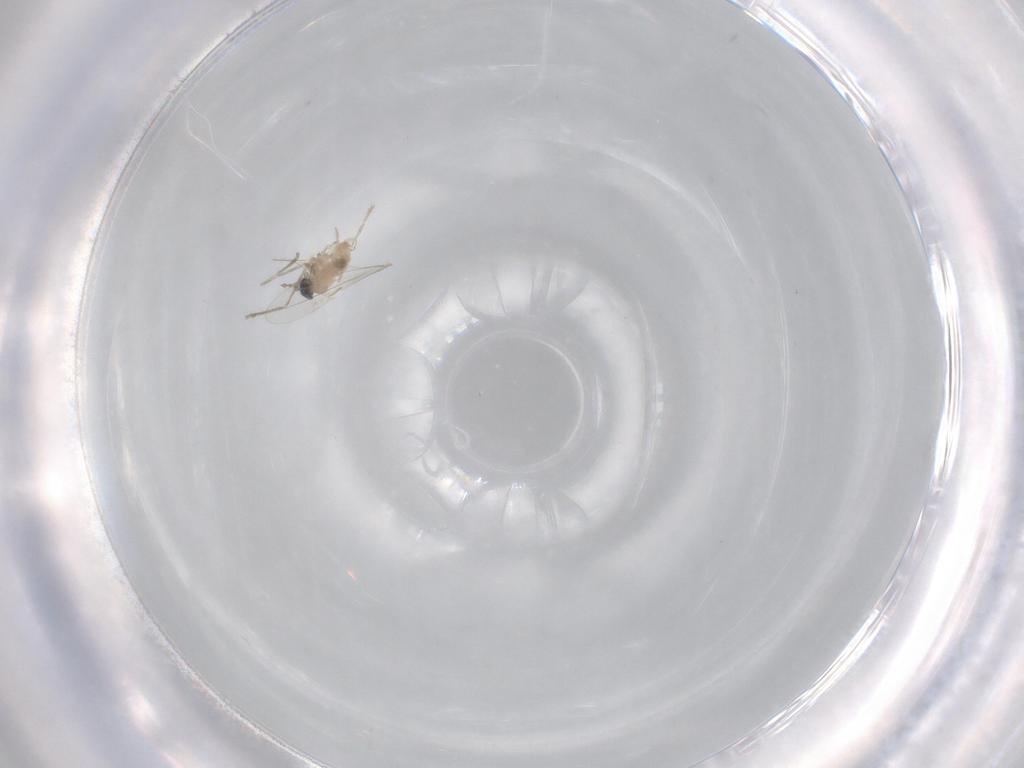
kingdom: Animalia
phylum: Arthropoda
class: Insecta
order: Diptera
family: Cecidomyiidae
